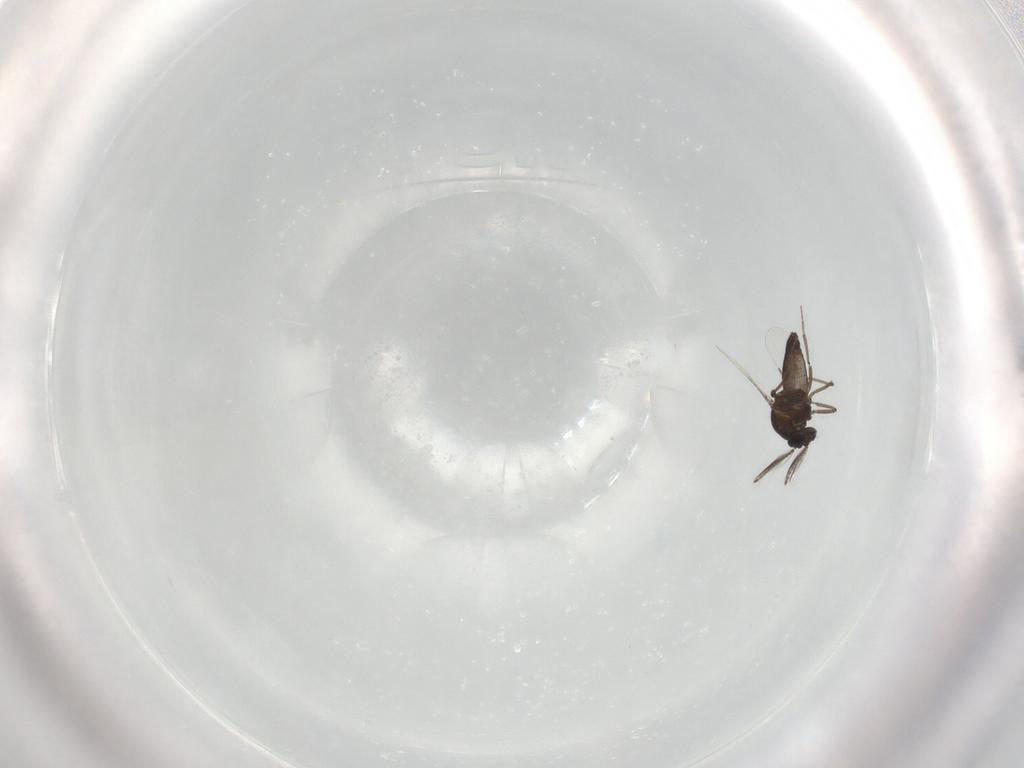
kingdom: Animalia
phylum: Arthropoda
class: Insecta
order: Diptera
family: Ceratopogonidae
